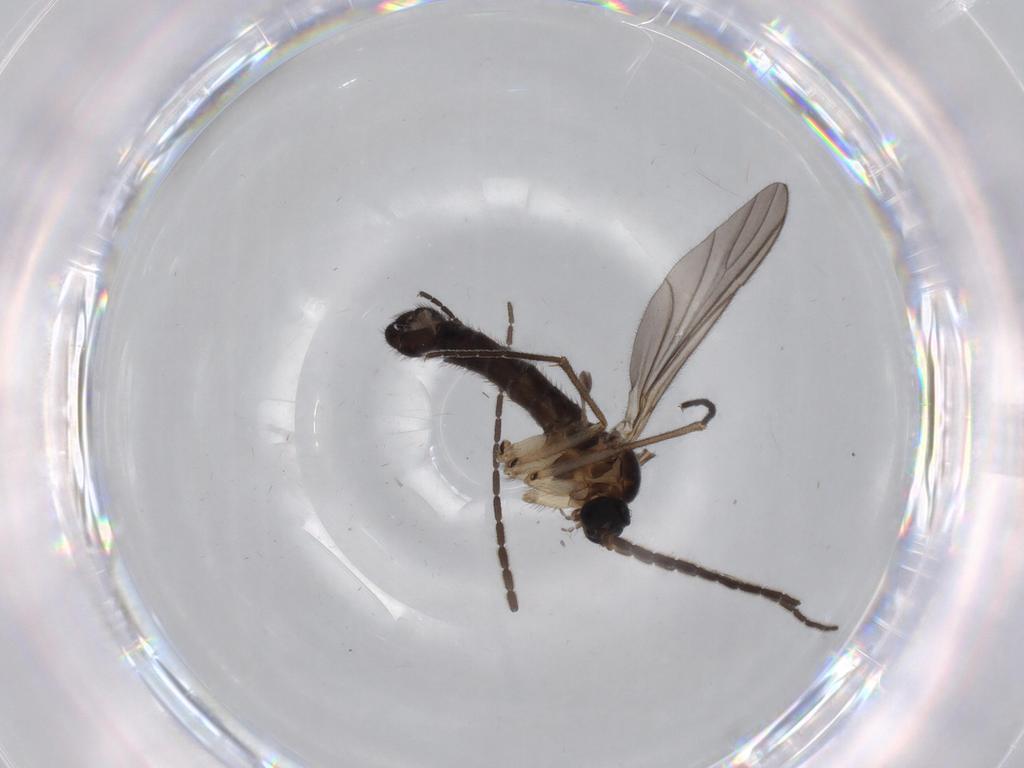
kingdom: Animalia
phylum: Arthropoda
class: Insecta
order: Diptera
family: Sciaridae
